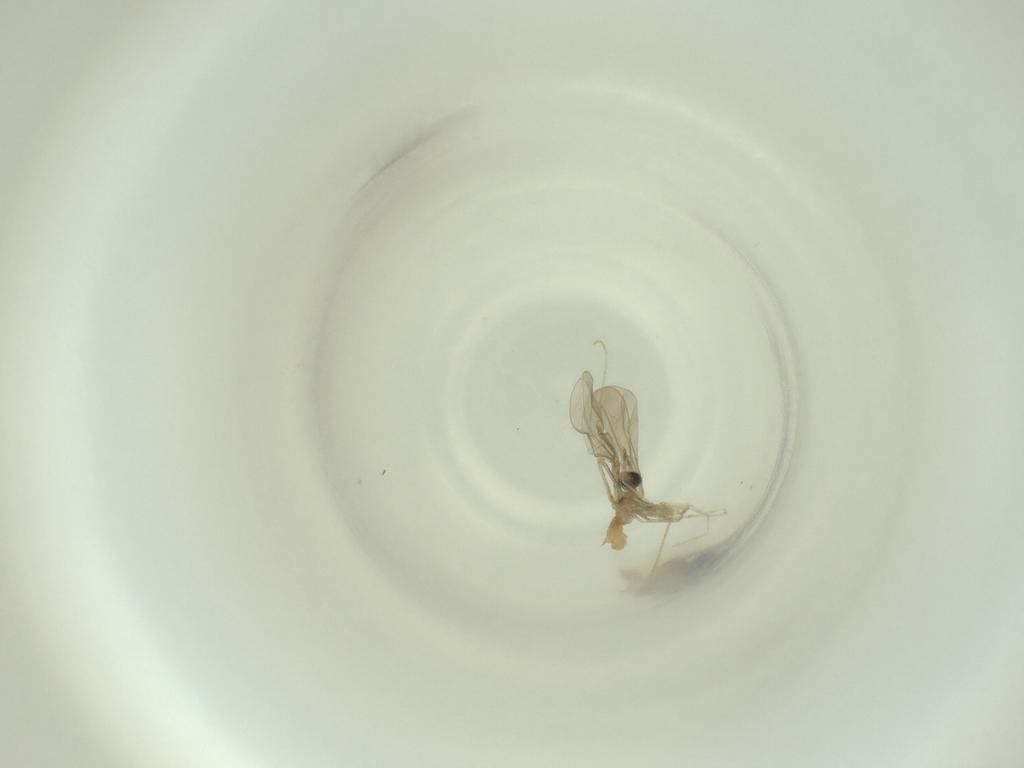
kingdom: Animalia
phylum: Arthropoda
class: Insecta
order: Diptera
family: Cecidomyiidae
